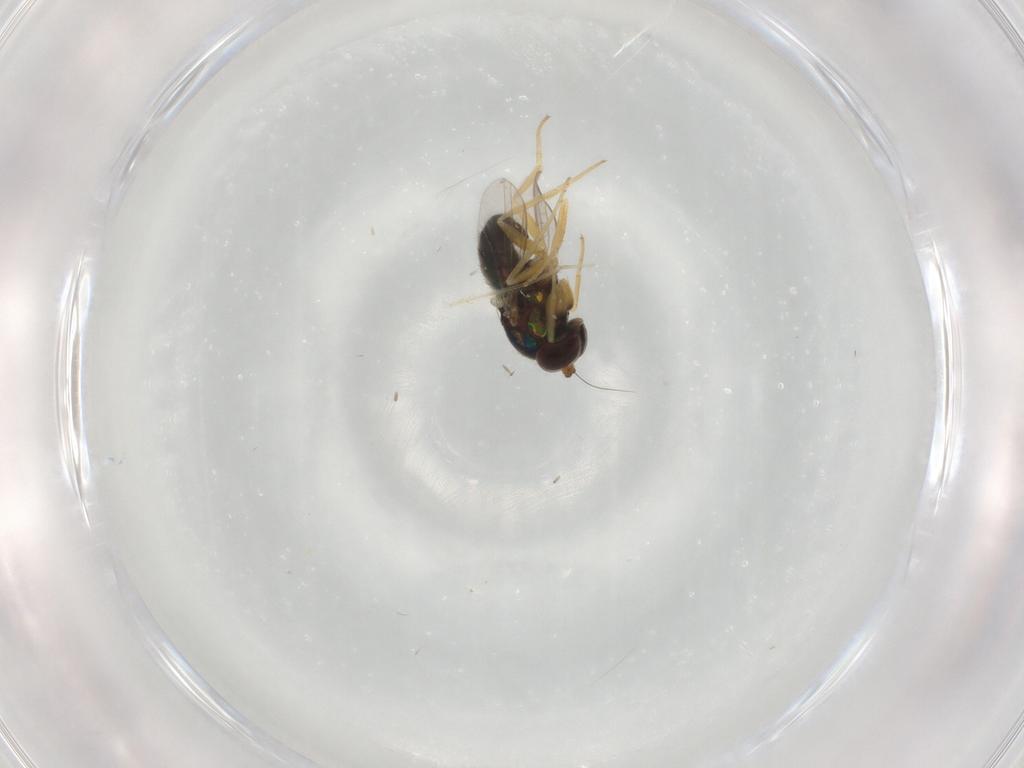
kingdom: Animalia
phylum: Arthropoda
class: Insecta
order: Diptera
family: Dolichopodidae
